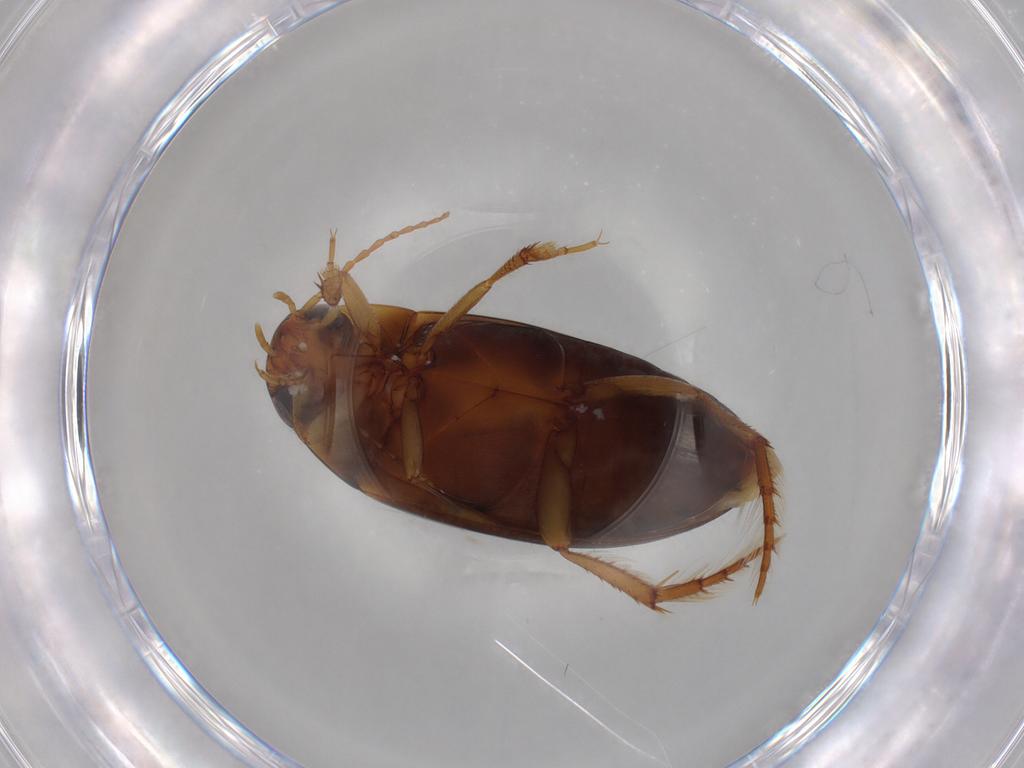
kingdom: Animalia
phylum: Arthropoda
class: Insecta
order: Coleoptera
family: Dytiscidae
